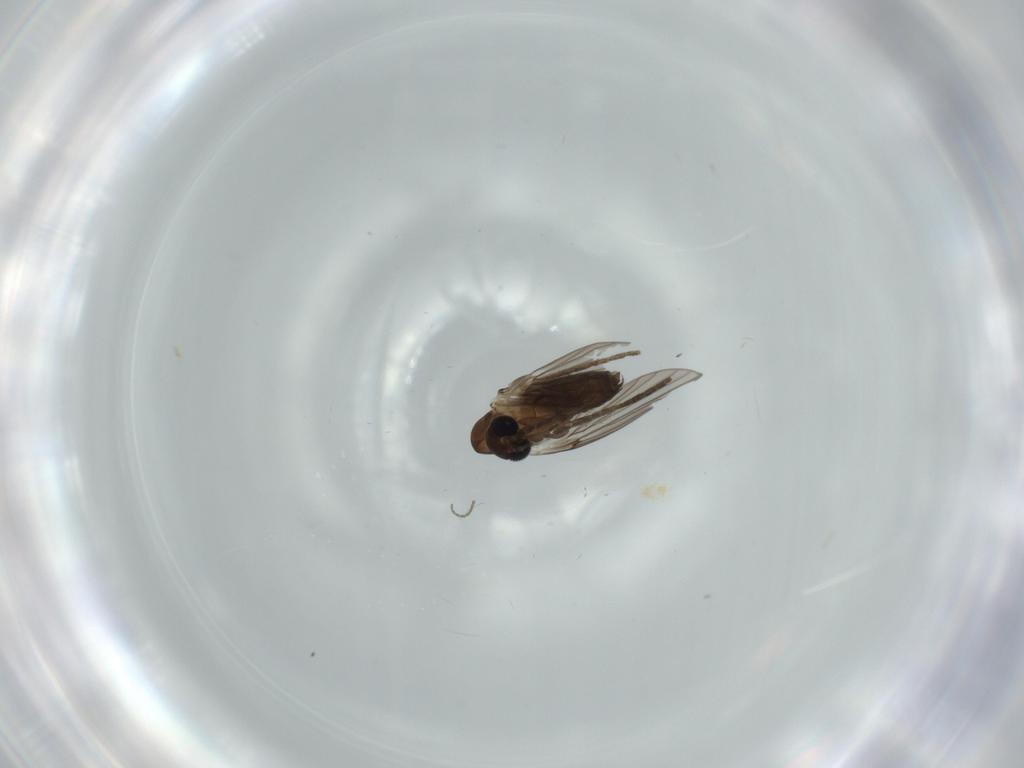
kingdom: Animalia
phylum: Arthropoda
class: Insecta
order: Diptera
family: Psychodidae
